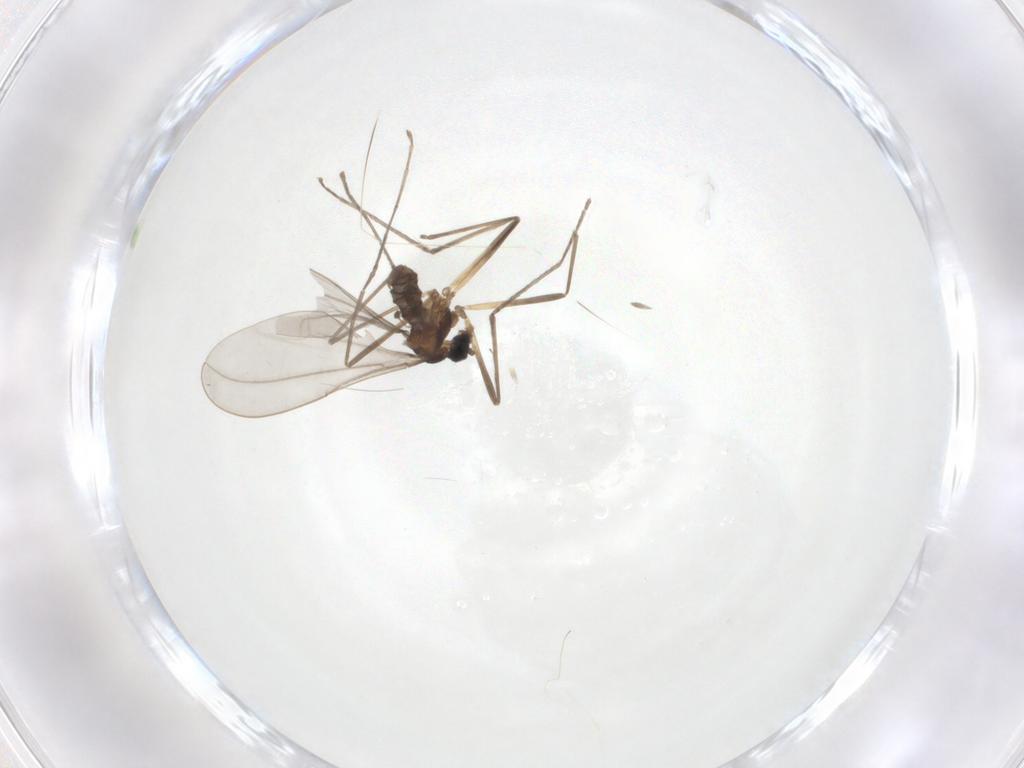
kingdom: Animalia
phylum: Arthropoda
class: Insecta
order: Diptera
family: Cecidomyiidae
